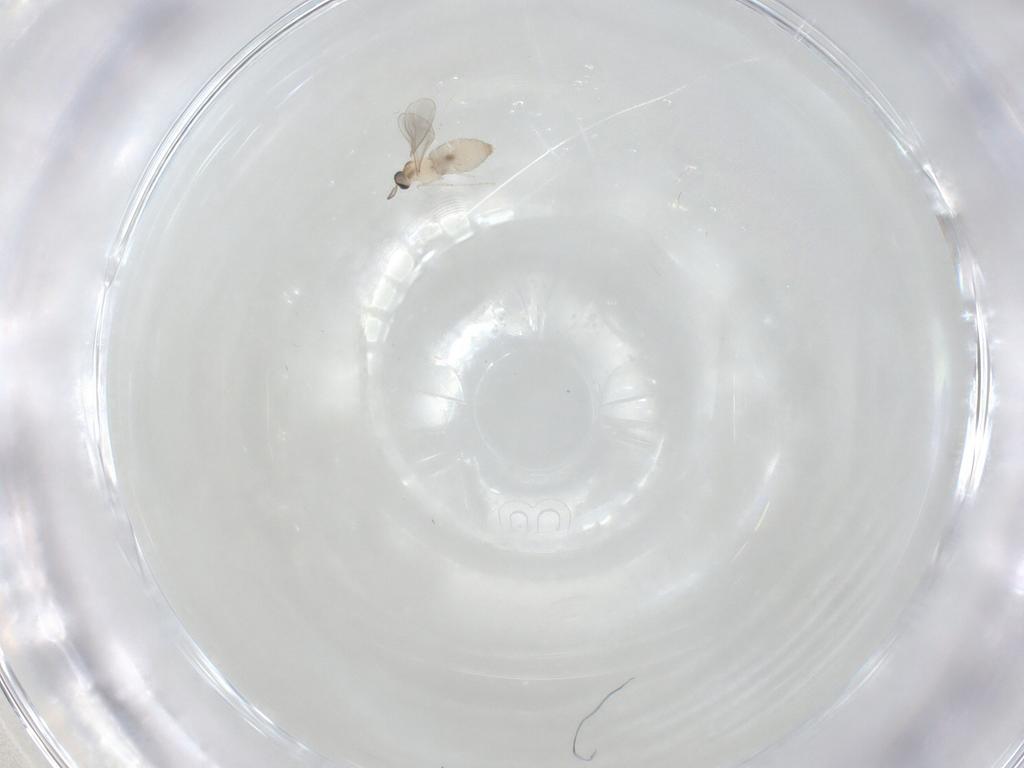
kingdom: Animalia
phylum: Arthropoda
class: Insecta
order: Diptera
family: Cecidomyiidae
